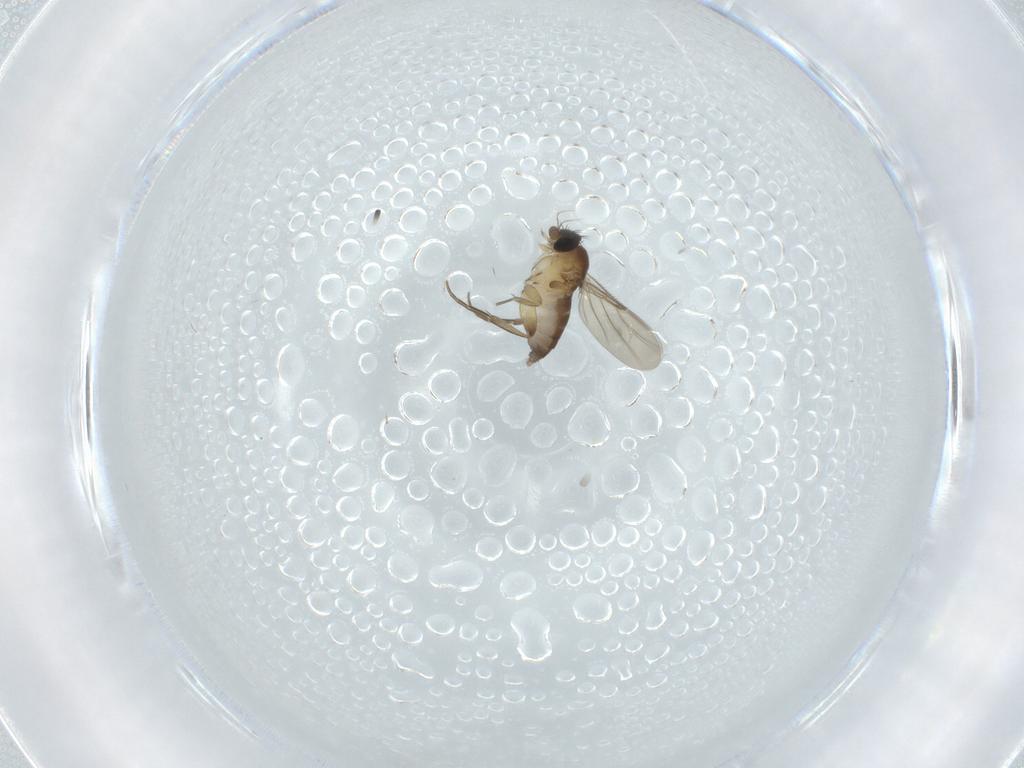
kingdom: Animalia
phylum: Arthropoda
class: Insecta
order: Diptera
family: Phoridae
